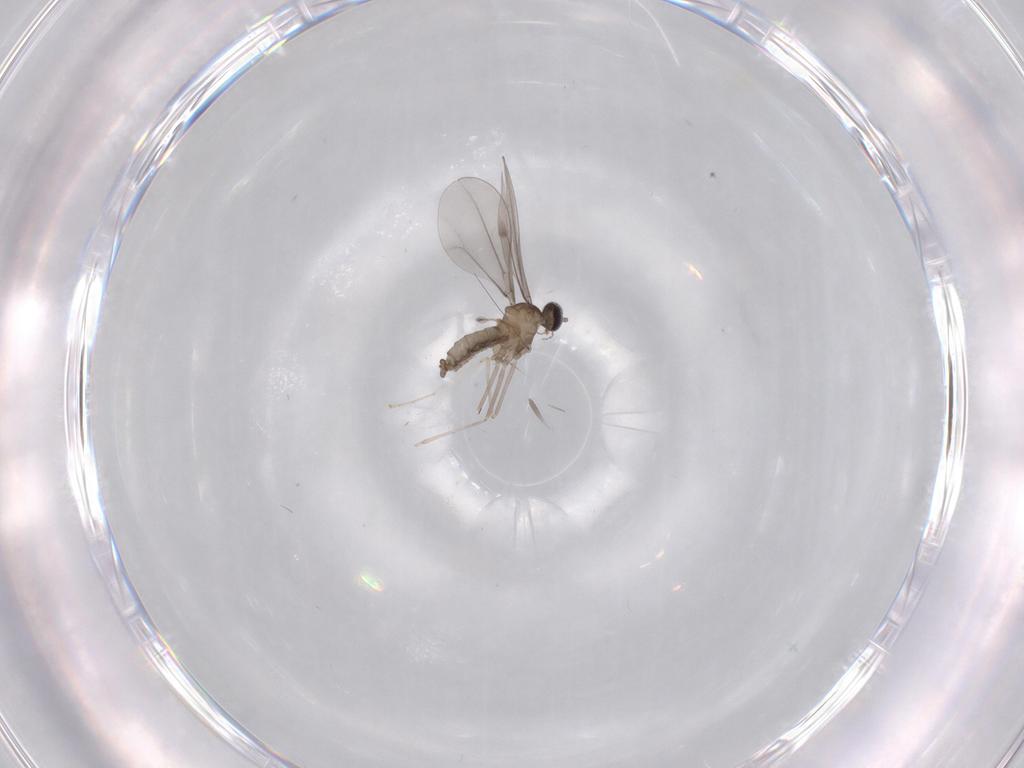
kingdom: Animalia
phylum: Arthropoda
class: Insecta
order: Diptera
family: Cecidomyiidae
